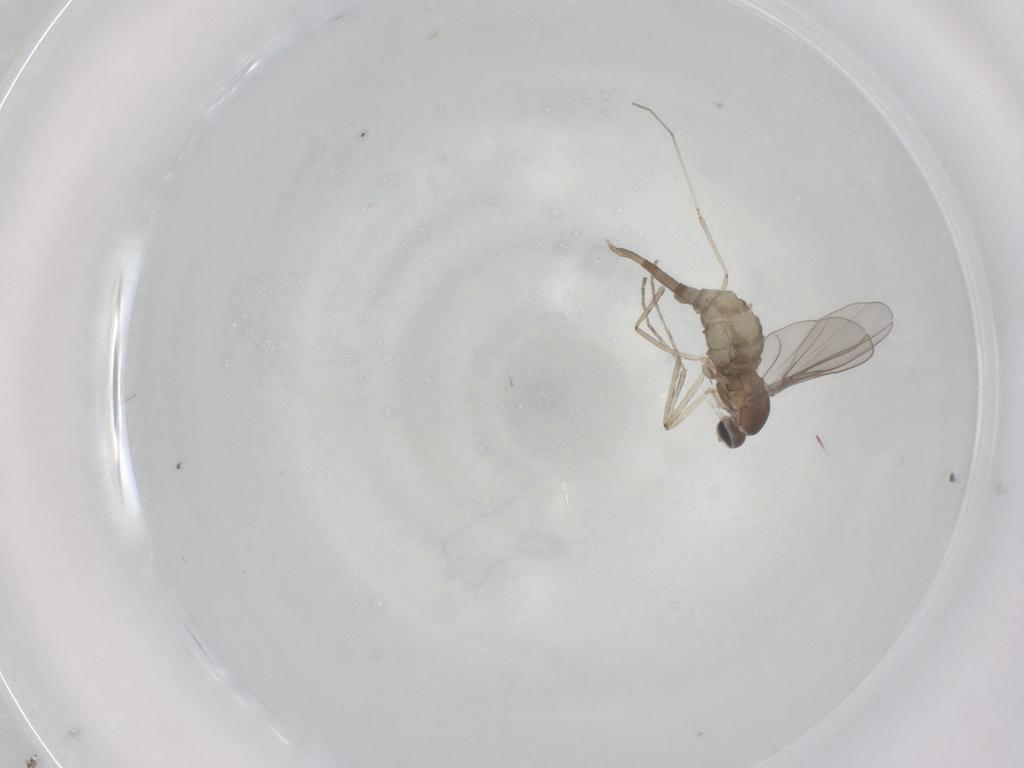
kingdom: Animalia
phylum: Arthropoda
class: Insecta
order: Diptera
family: Cecidomyiidae
